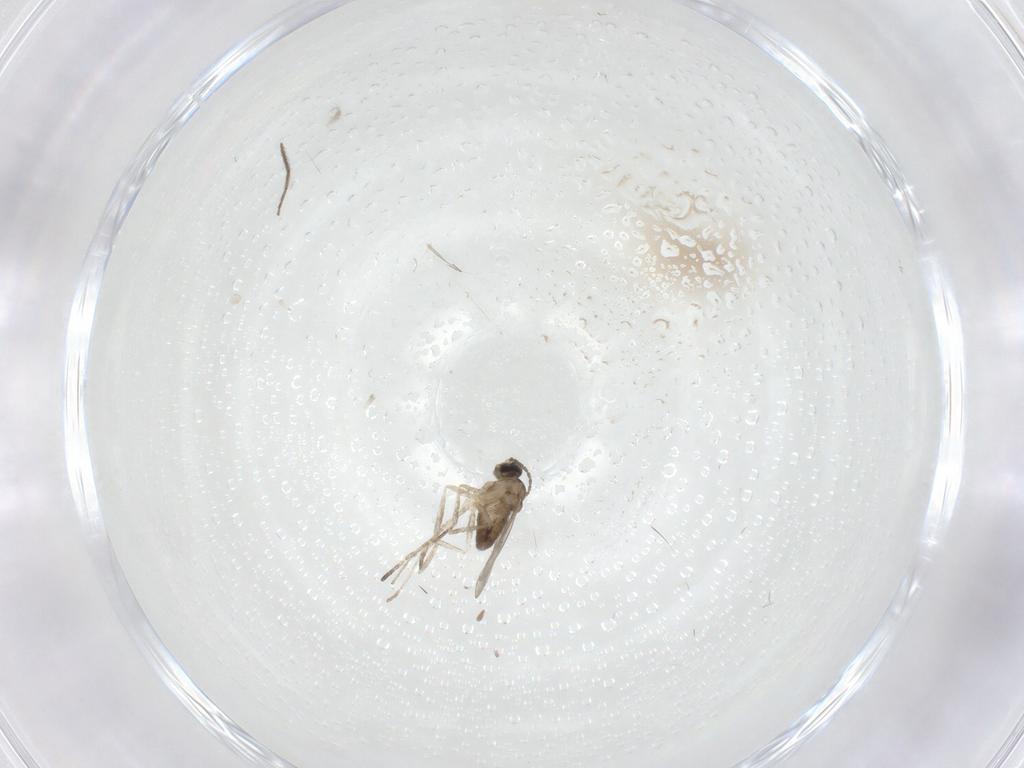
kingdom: Animalia
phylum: Arthropoda
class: Insecta
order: Diptera
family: Cecidomyiidae
